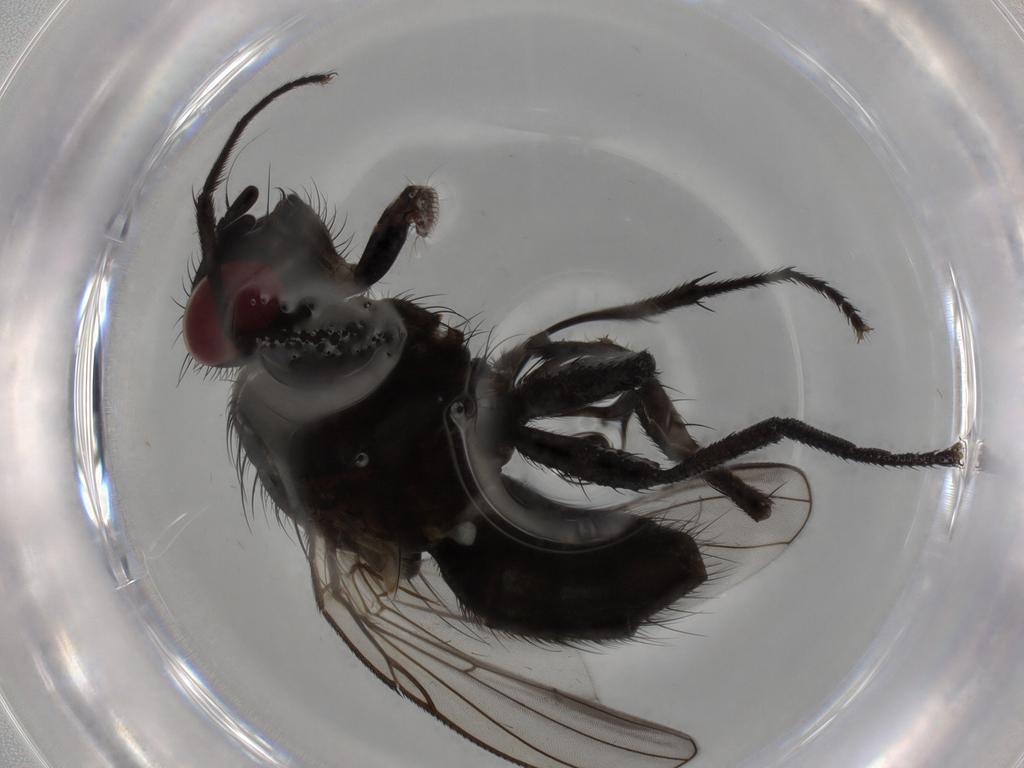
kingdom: Animalia
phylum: Arthropoda
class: Insecta
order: Diptera
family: Muscidae
